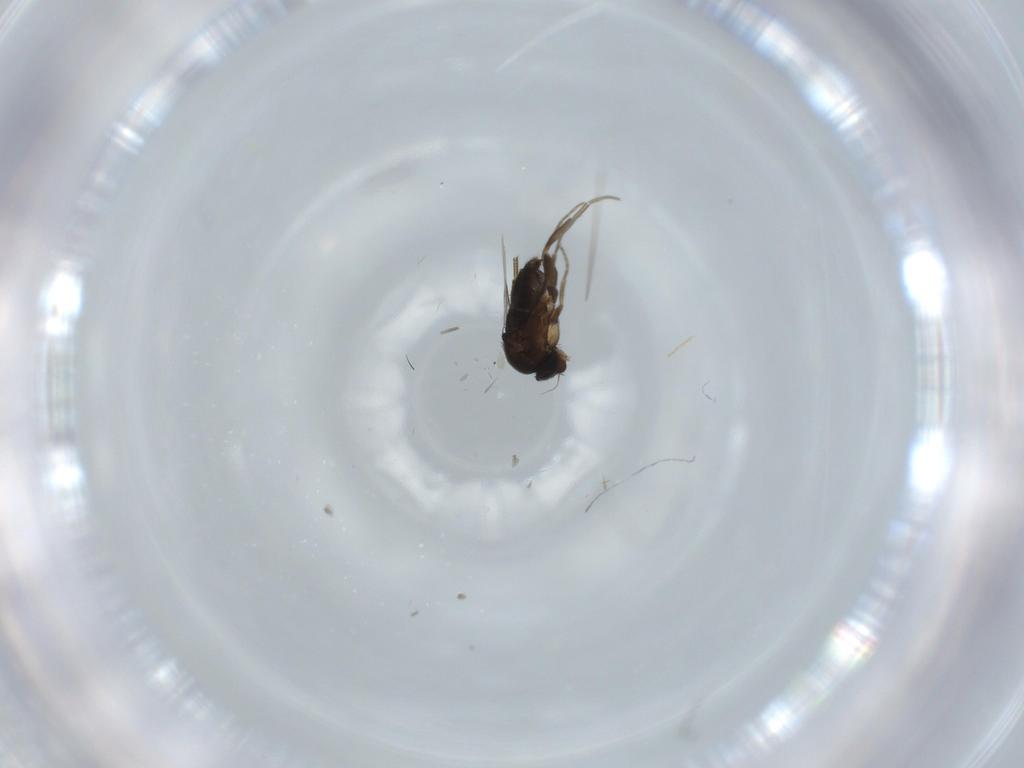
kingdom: Animalia
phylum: Arthropoda
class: Insecta
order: Diptera
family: Phoridae
